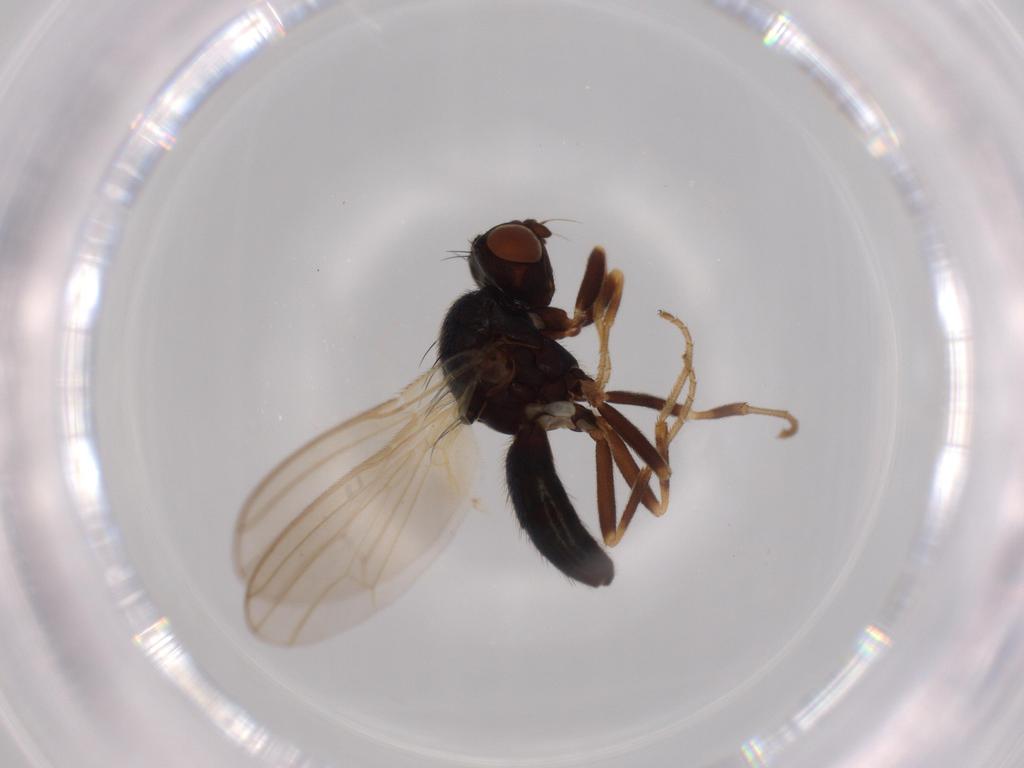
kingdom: Animalia
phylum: Arthropoda
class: Insecta
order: Diptera
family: Cecidomyiidae
